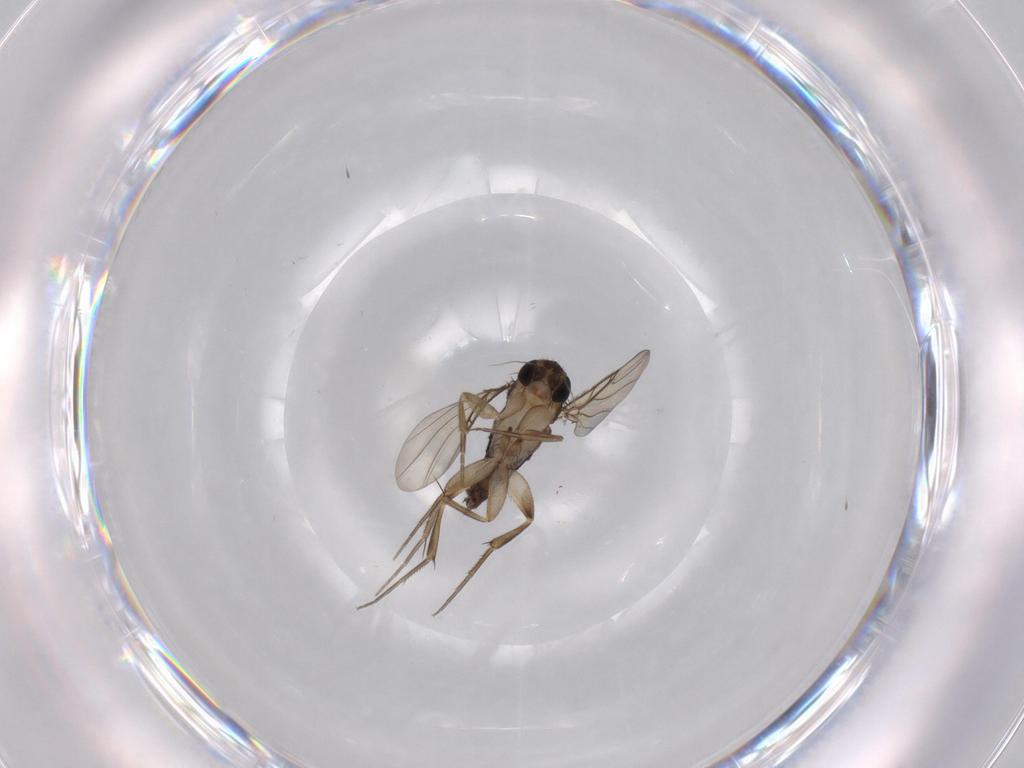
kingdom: Animalia
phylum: Arthropoda
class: Insecta
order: Diptera
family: Phoridae
